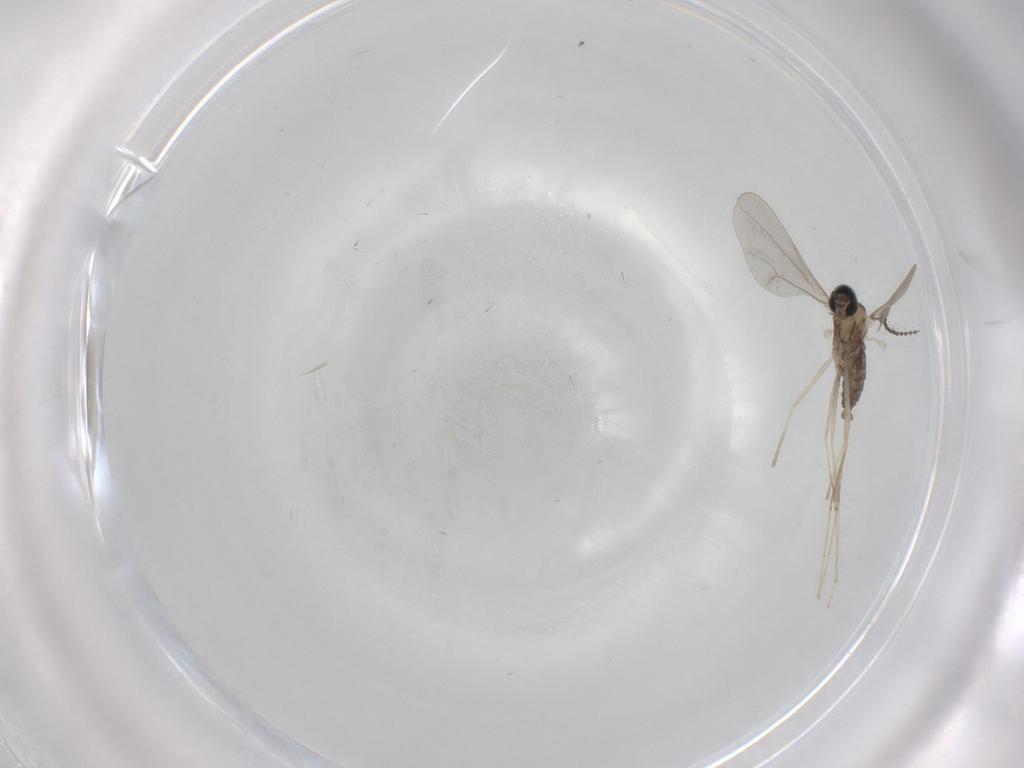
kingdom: Animalia
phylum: Arthropoda
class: Insecta
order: Diptera
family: Cecidomyiidae
